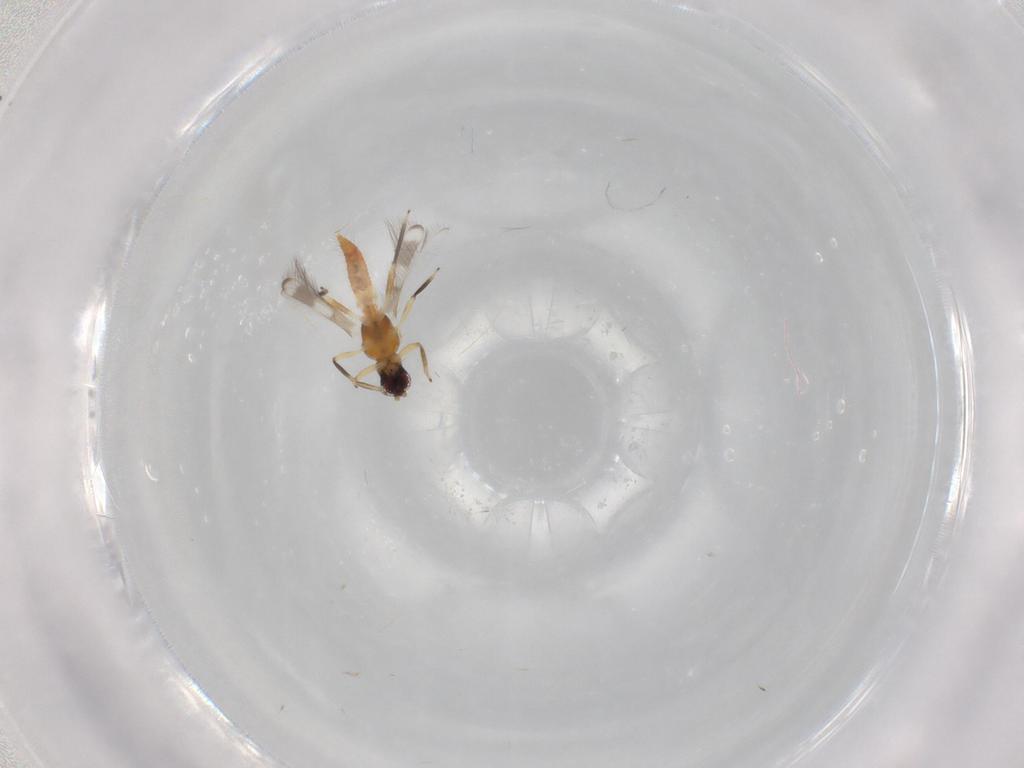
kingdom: Animalia
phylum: Arthropoda
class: Insecta
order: Thysanoptera
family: Aeolothripidae
